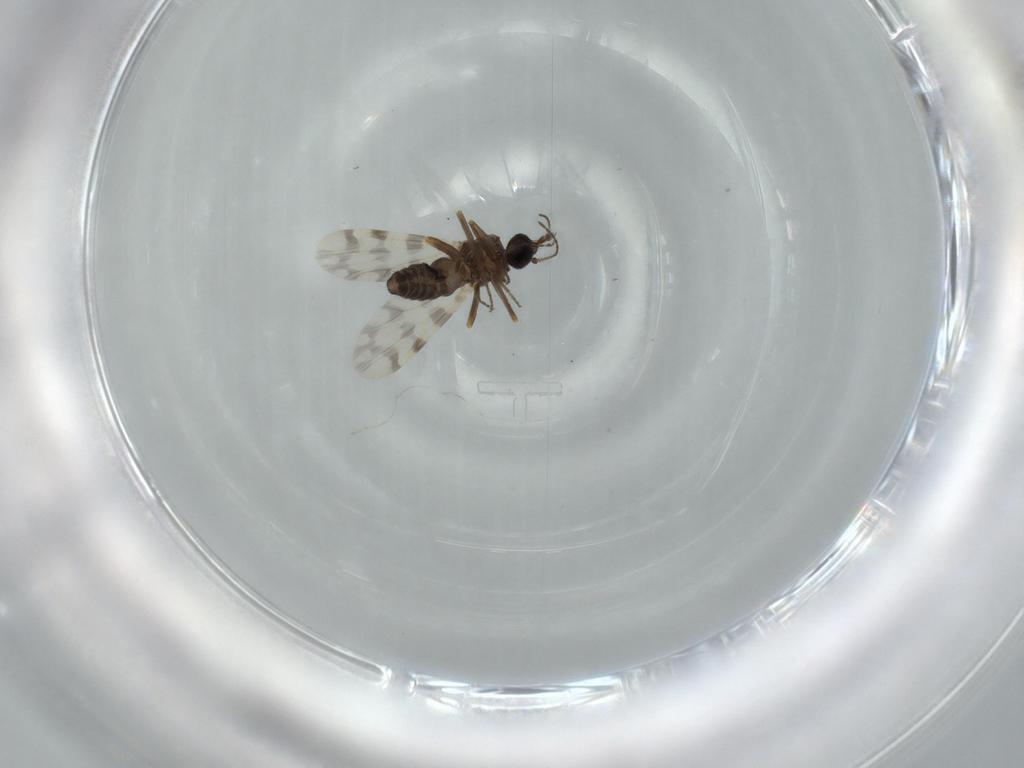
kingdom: Animalia
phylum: Arthropoda
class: Insecta
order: Diptera
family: Ceratopogonidae
